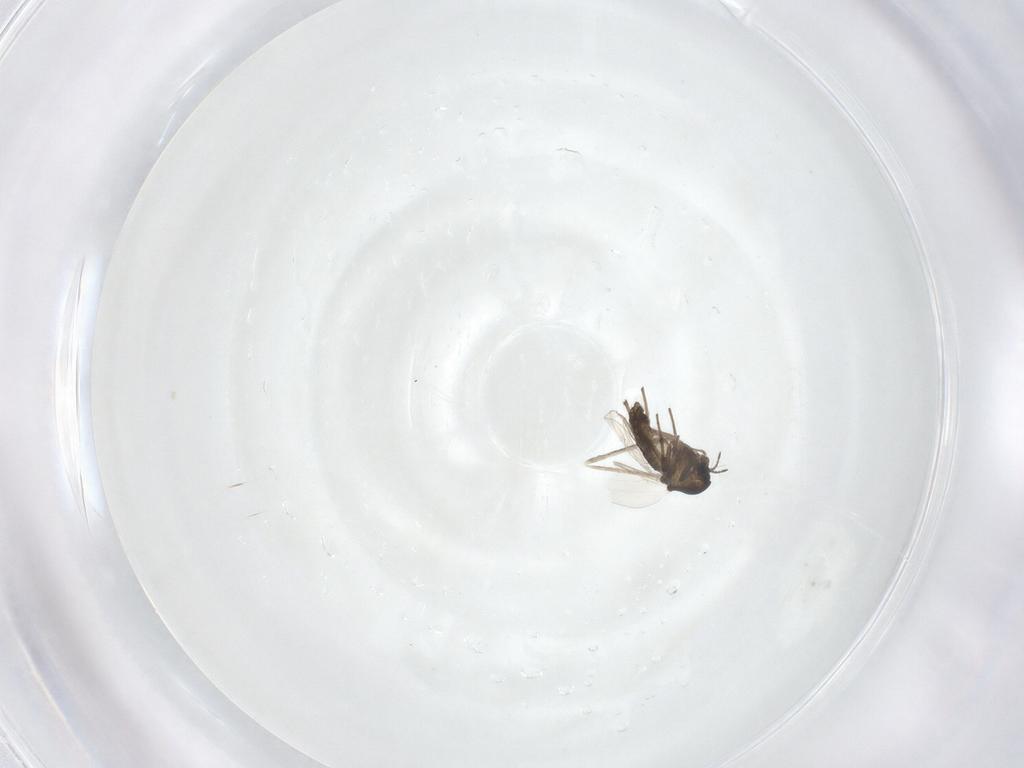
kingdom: Animalia
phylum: Arthropoda
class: Insecta
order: Diptera
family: Chironomidae
